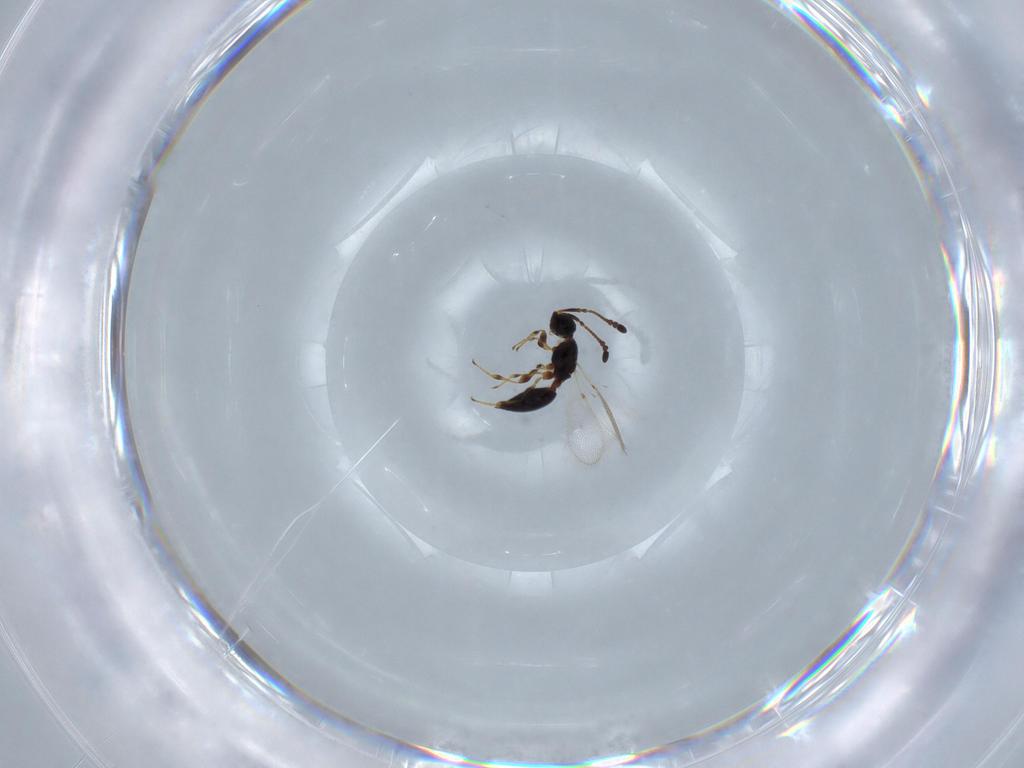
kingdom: Animalia
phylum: Arthropoda
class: Insecta
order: Hymenoptera
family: Diapriidae
